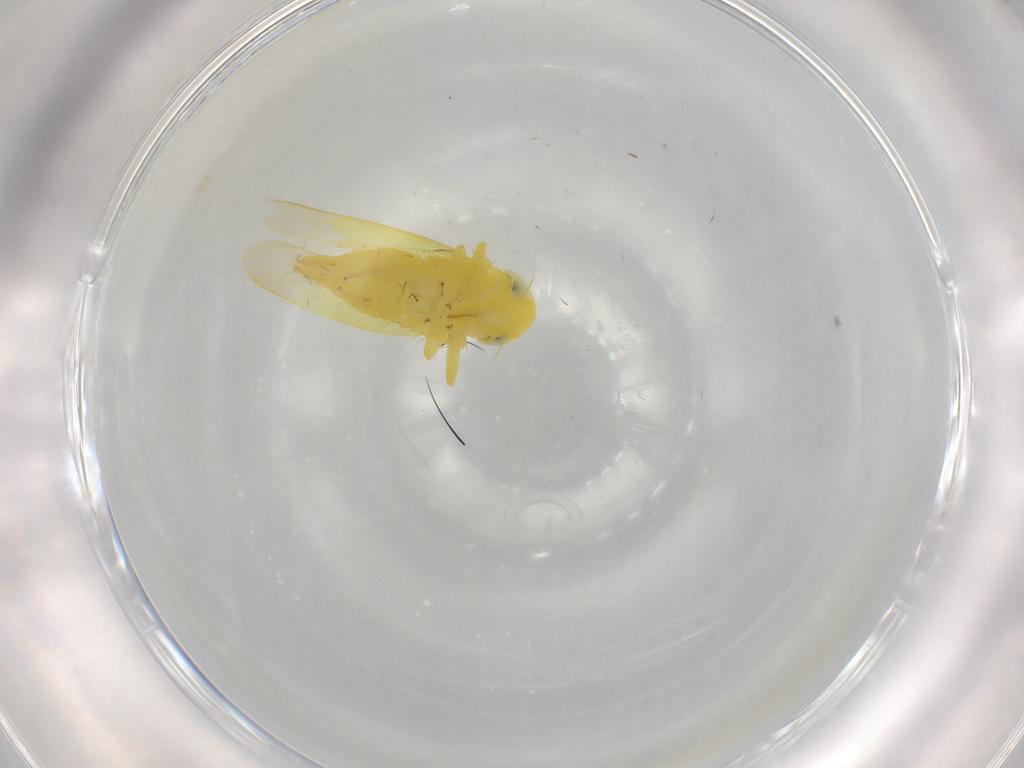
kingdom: Animalia
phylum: Arthropoda
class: Insecta
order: Hemiptera
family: Cicadellidae
